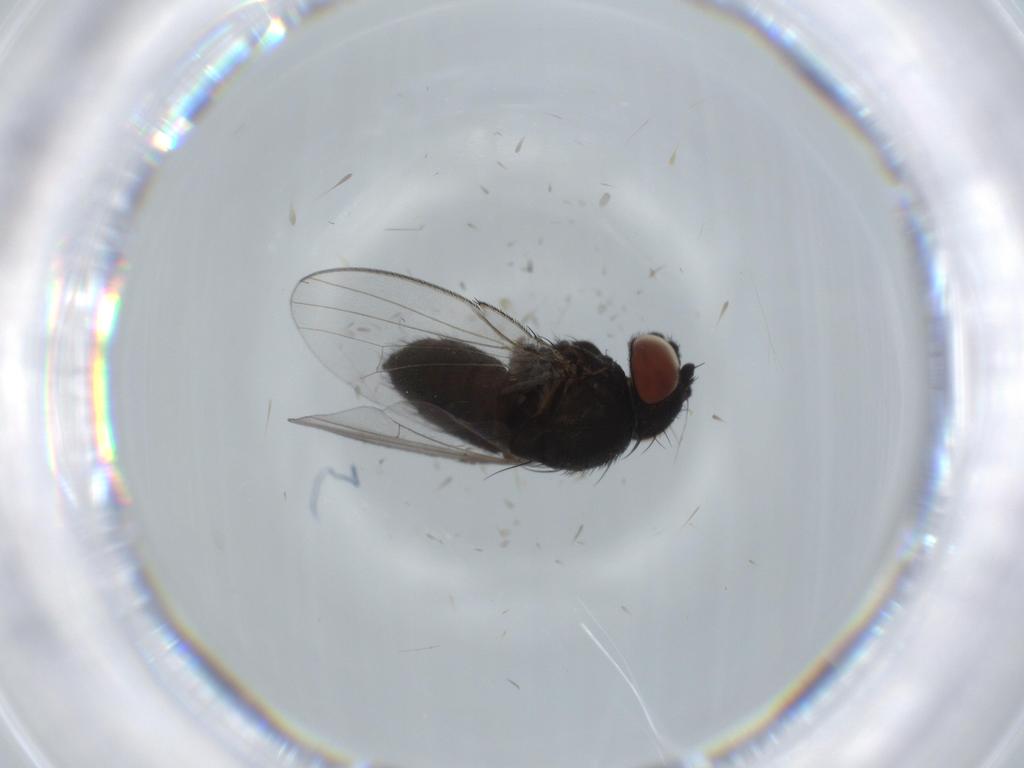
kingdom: Animalia
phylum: Arthropoda
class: Insecta
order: Diptera
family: Milichiidae
